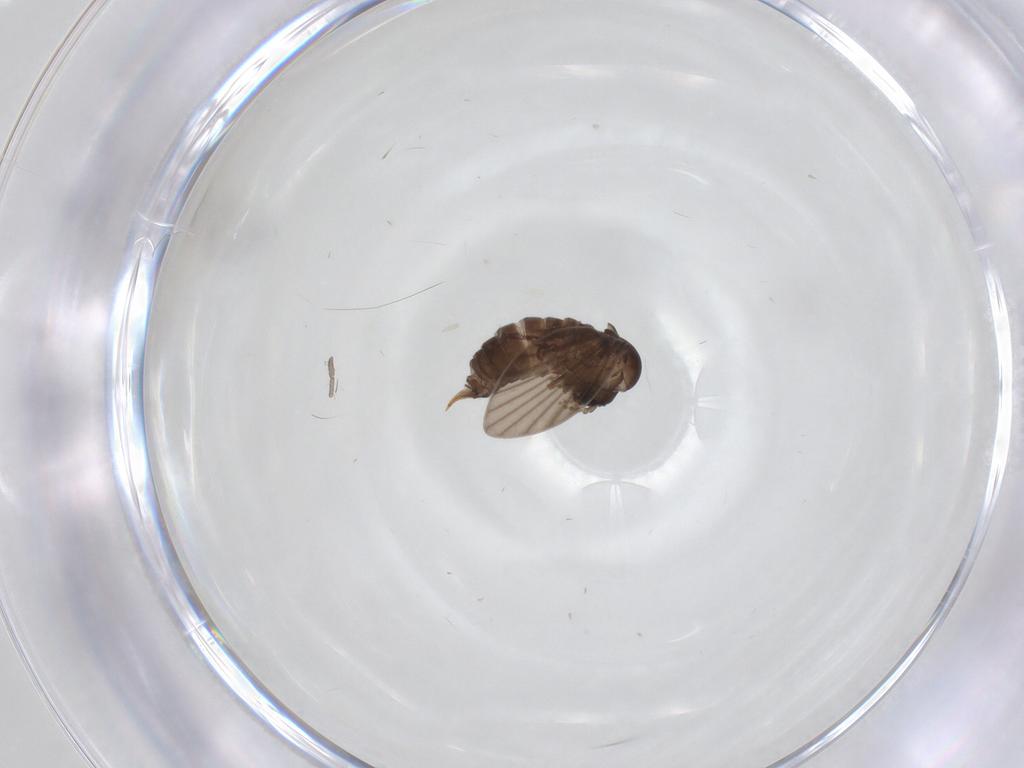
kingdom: Animalia
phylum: Arthropoda
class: Insecta
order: Diptera
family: Psychodidae
